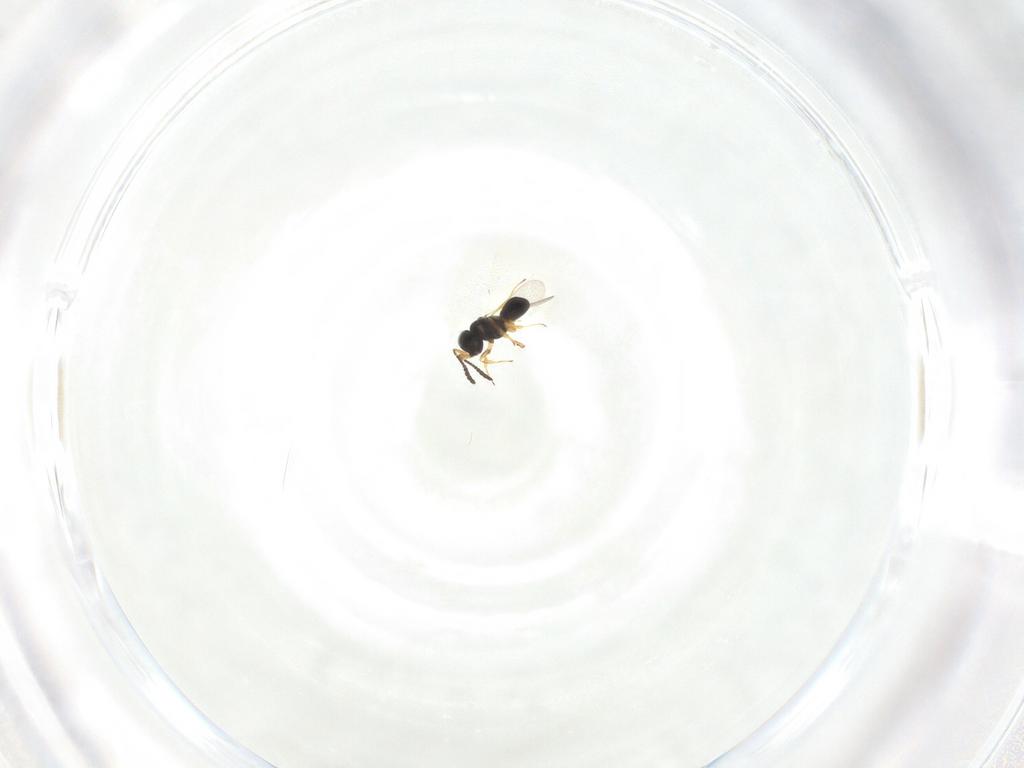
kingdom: Animalia
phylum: Arthropoda
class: Insecta
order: Hymenoptera
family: Scelionidae
